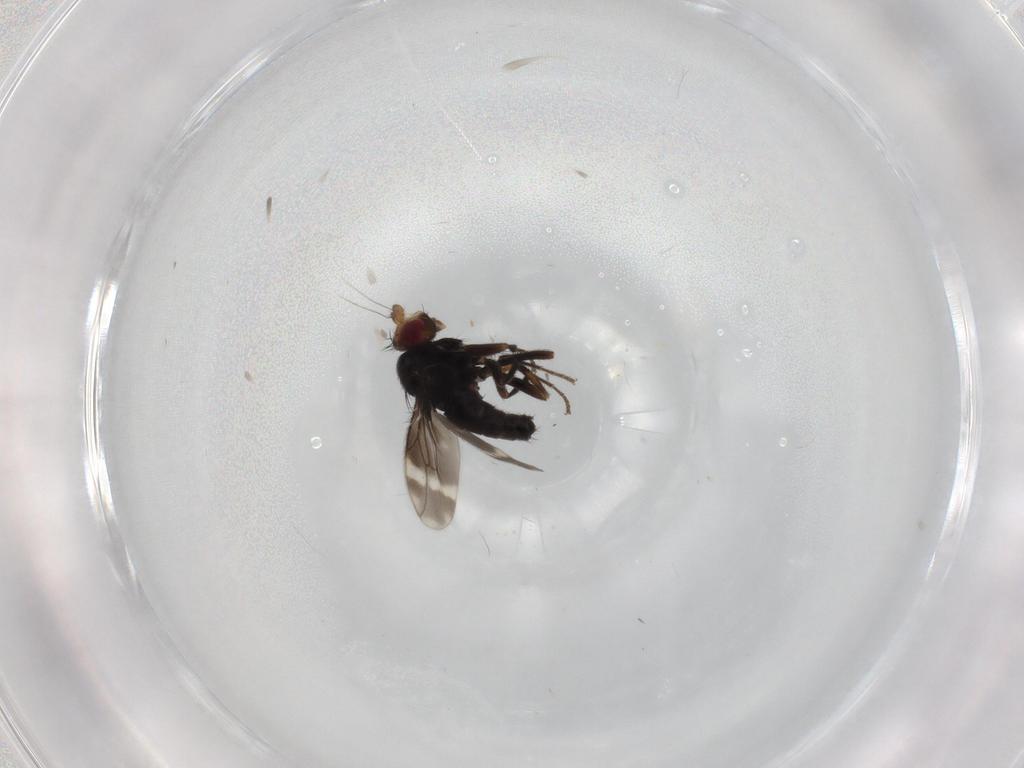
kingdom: Animalia
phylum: Arthropoda
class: Insecta
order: Diptera
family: Sphaeroceridae
